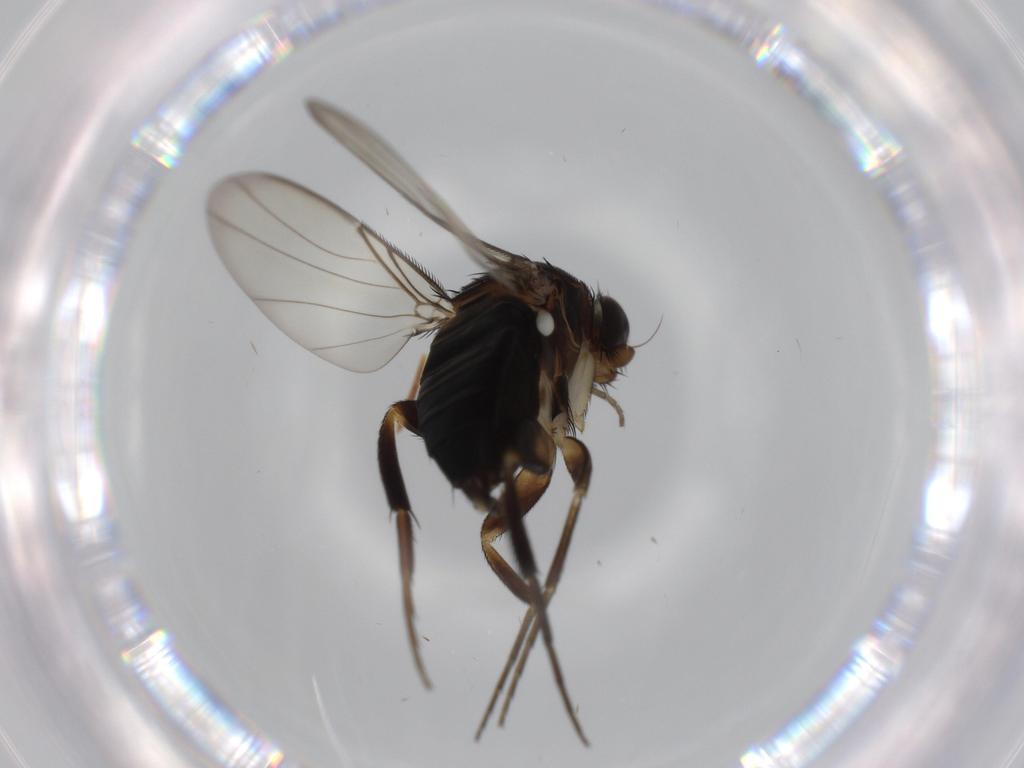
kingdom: Animalia
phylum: Arthropoda
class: Insecta
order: Diptera
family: Phoridae
